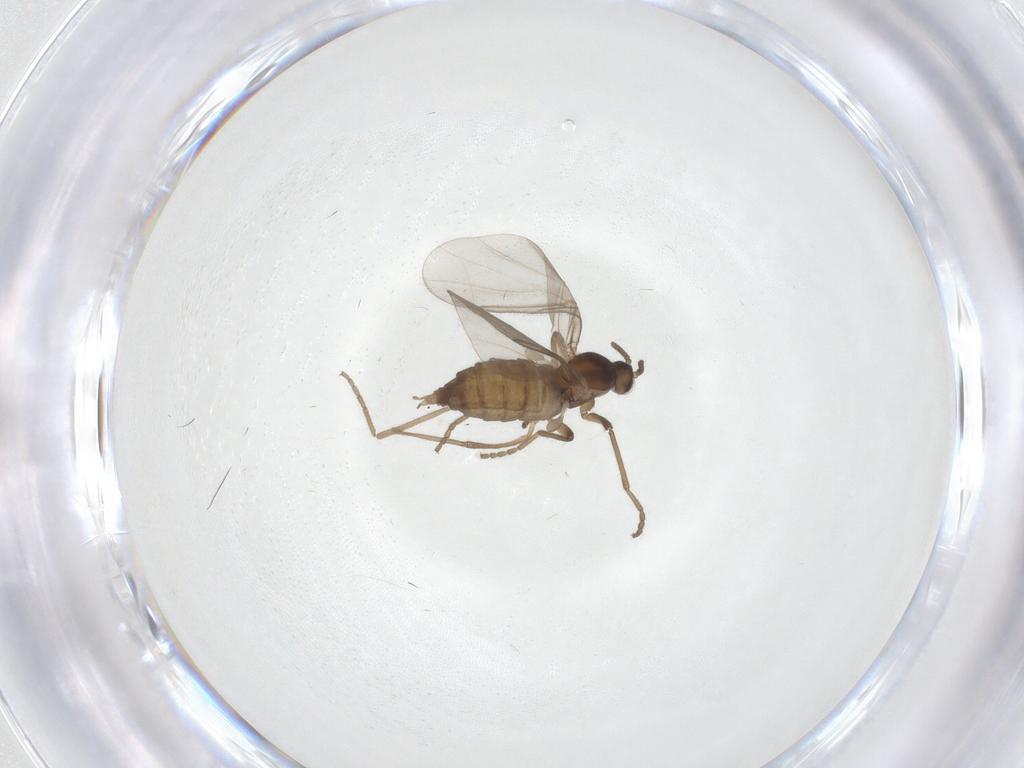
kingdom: Animalia
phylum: Arthropoda
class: Insecta
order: Diptera
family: Cecidomyiidae
